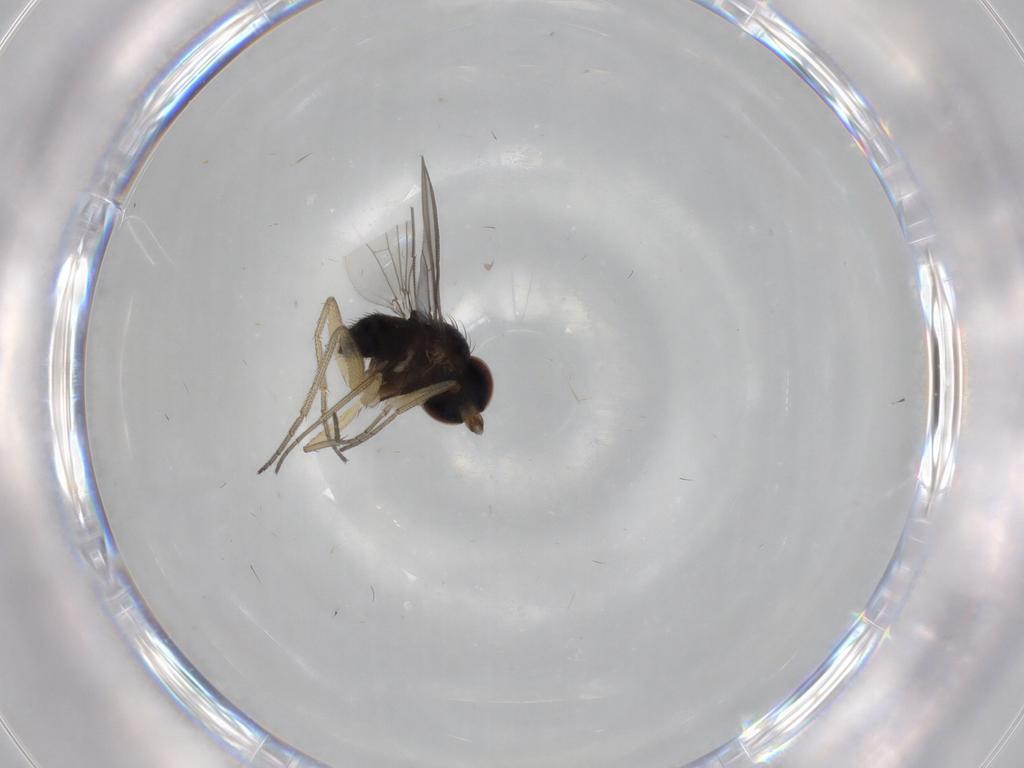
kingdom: Animalia
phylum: Arthropoda
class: Insecta
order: Diptera
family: Dolichopodidae
